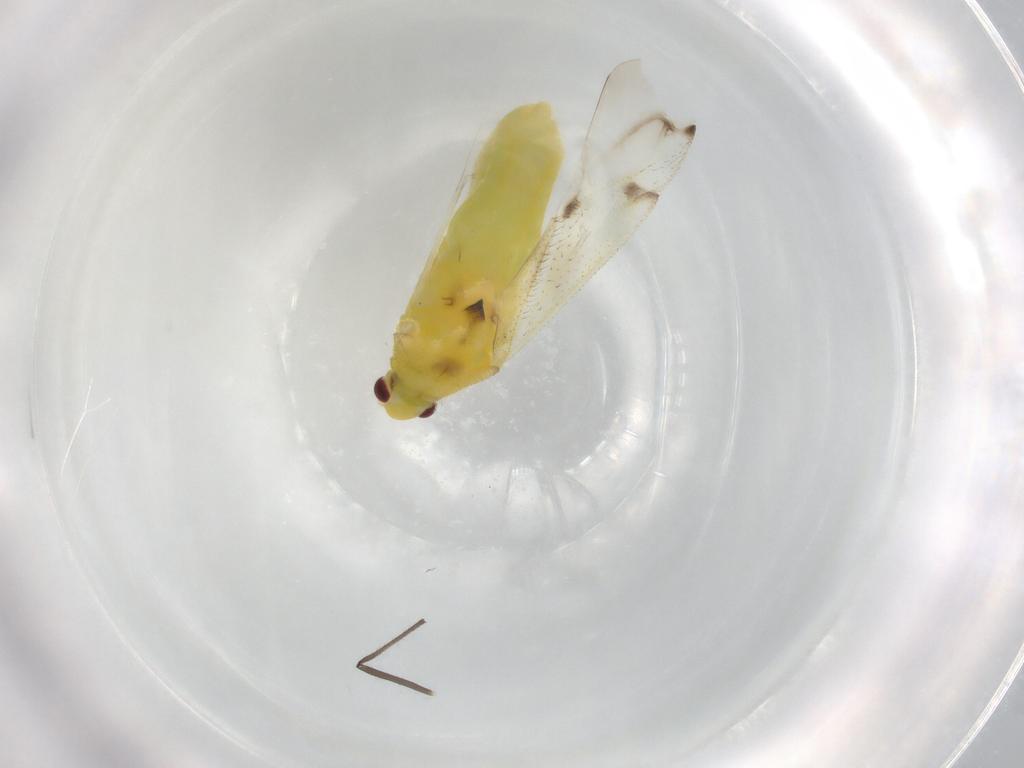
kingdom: Animalia
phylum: Arthropoda
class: Insecta
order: Hemiptera
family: Miridae
